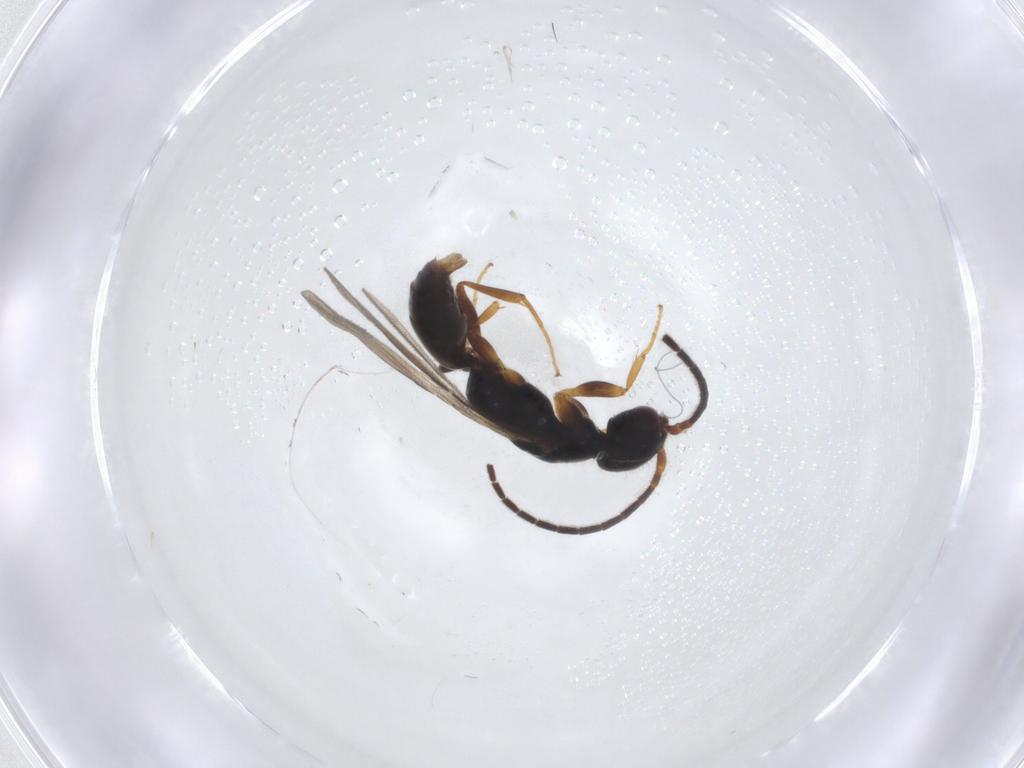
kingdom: Animalia
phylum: Arthropoda
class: Insecta
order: Hymenoptera
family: Bethylidae
